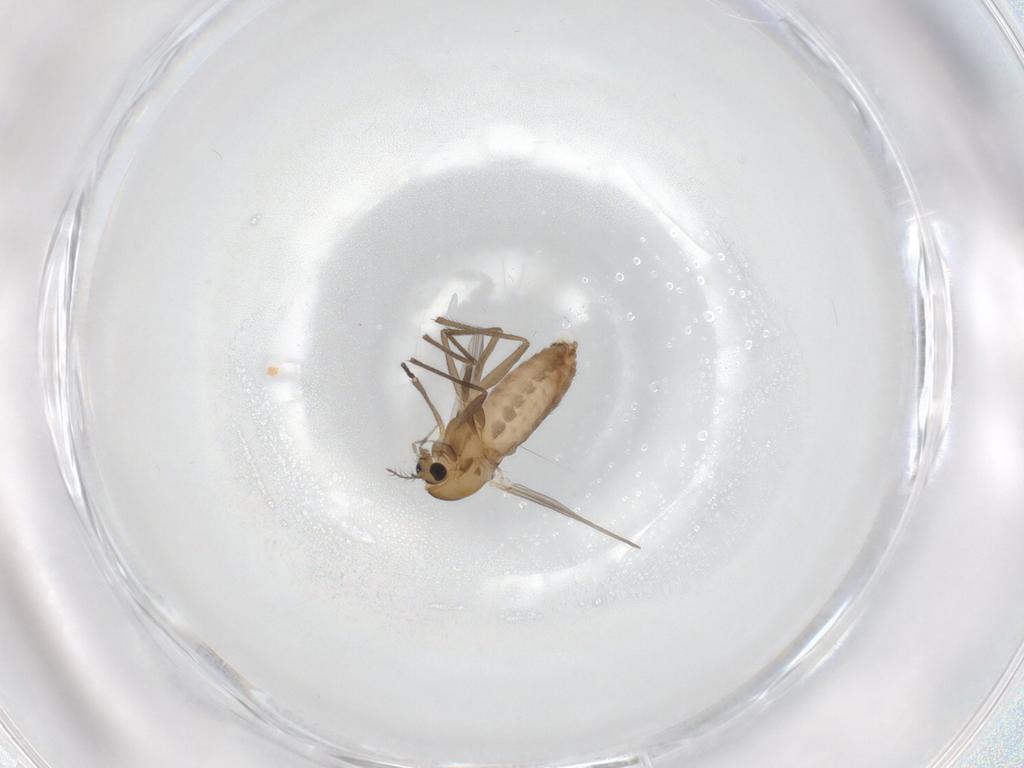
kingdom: Animalia
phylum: Arthropoda
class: Insecta
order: Diptera
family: Chironomidae
